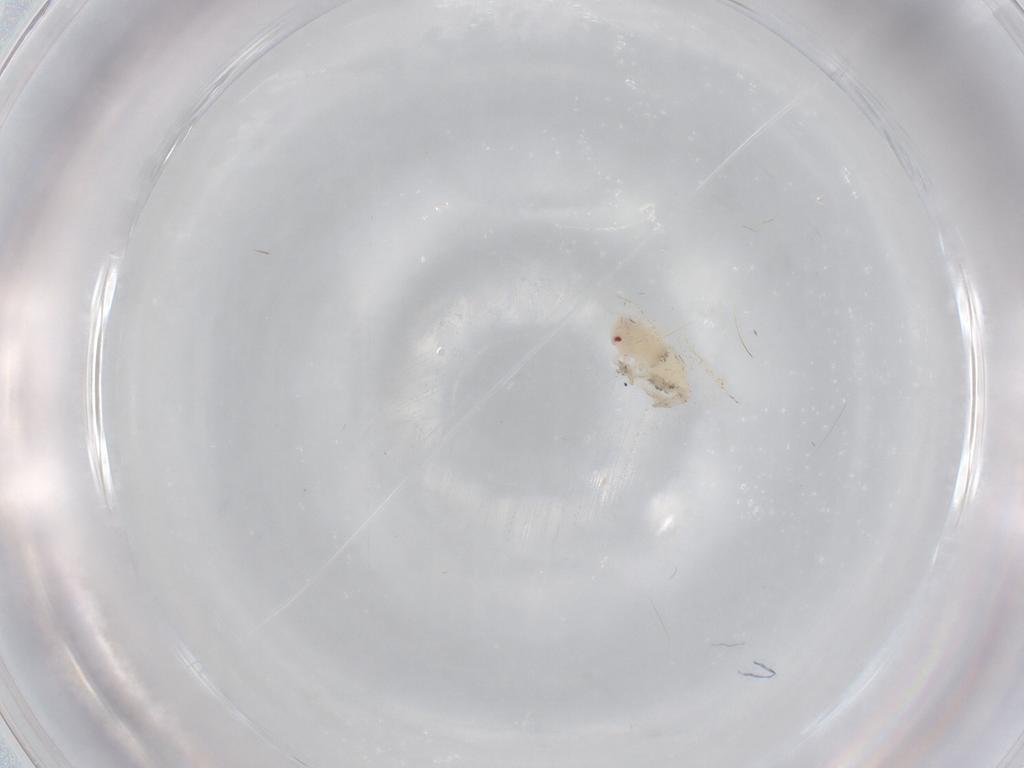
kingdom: Animalia
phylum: Arthropoda
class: Insecta
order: Hemiptera
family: Aleyrodidae
